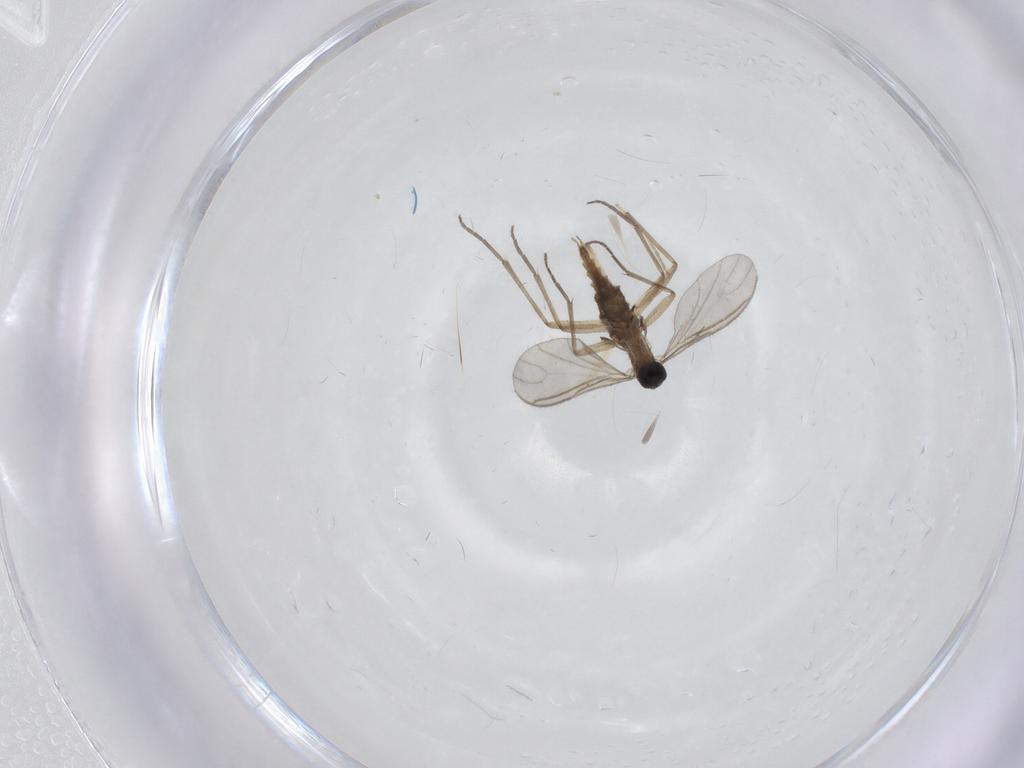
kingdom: Animalia
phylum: Arthropoda
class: Insecta
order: Diptera
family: Sciaridae
